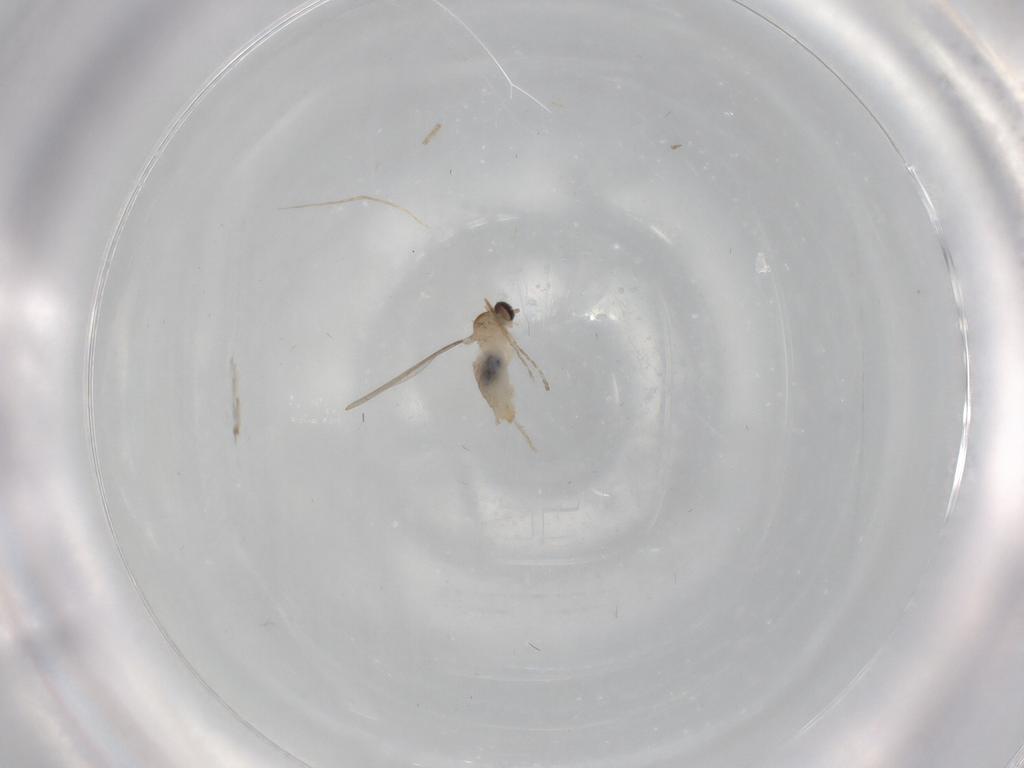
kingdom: Animalia
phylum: Arthropoda
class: Insecta
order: Diptera
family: Cecidomyiidae
